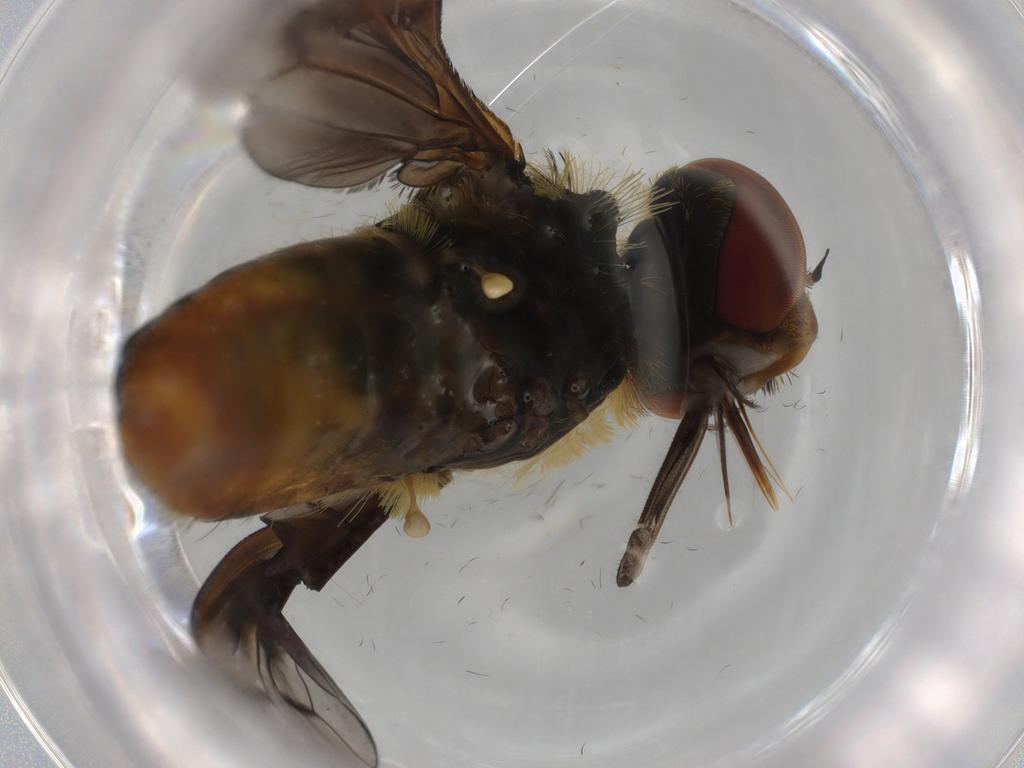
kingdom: Animalia
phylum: Arthropoda
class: Insecta
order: Diptera
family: Bombyliidae
